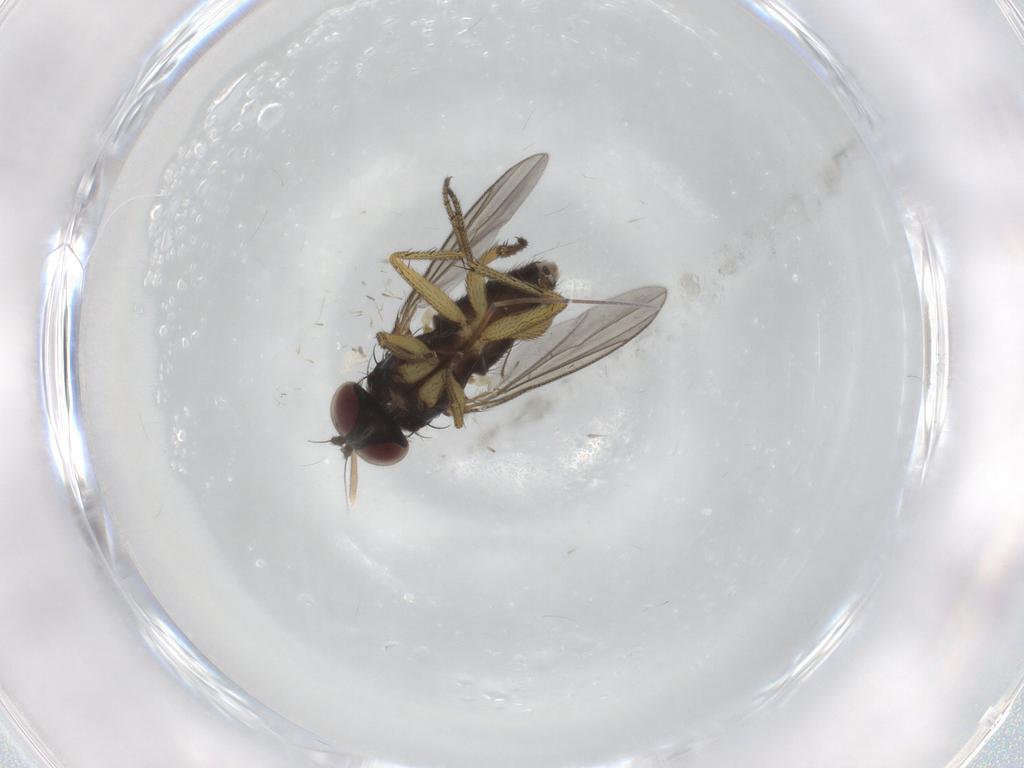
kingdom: Animalia
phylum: Arthropoda
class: Insecta
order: Diptera
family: Chironomidae
